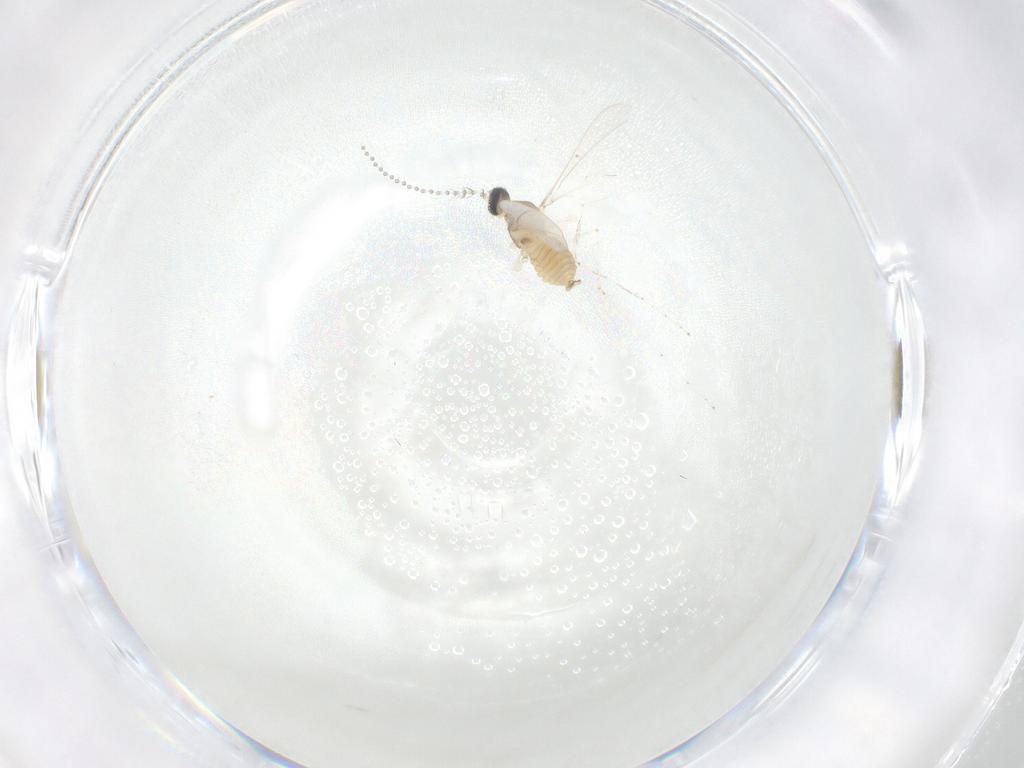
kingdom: Animalia
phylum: Arthropoda
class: Insecta
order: Diptera
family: Cecidomyiidae
